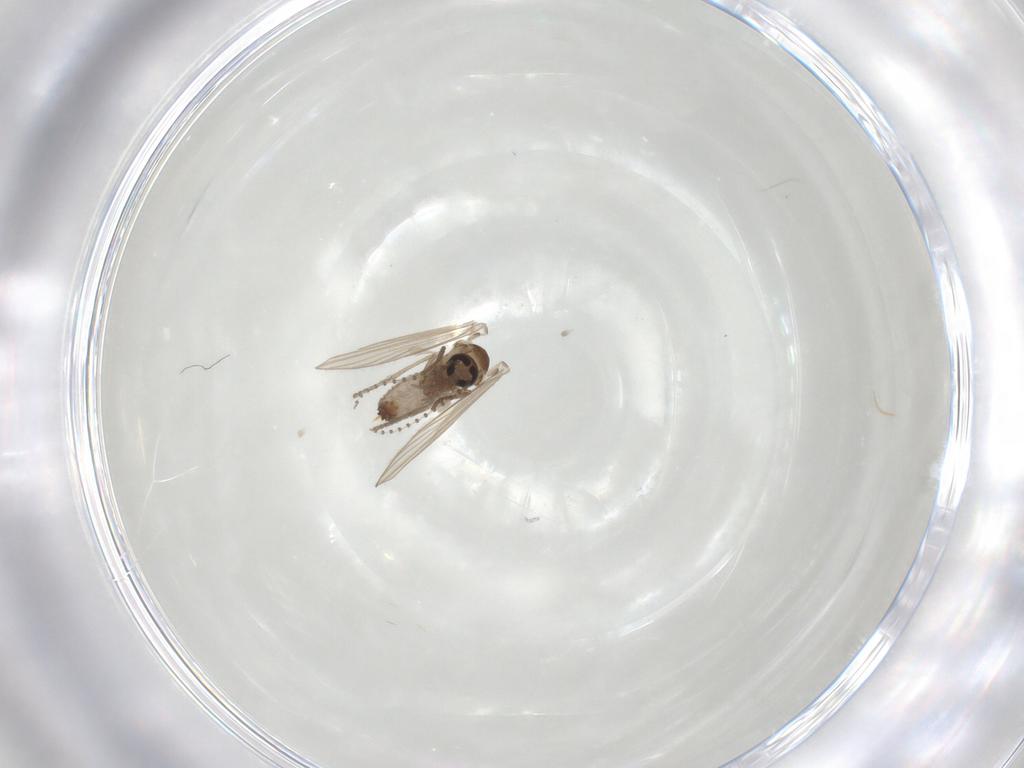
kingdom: Animalia
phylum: Arthropoda
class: Insecta
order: Diptera
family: Psychodidae
